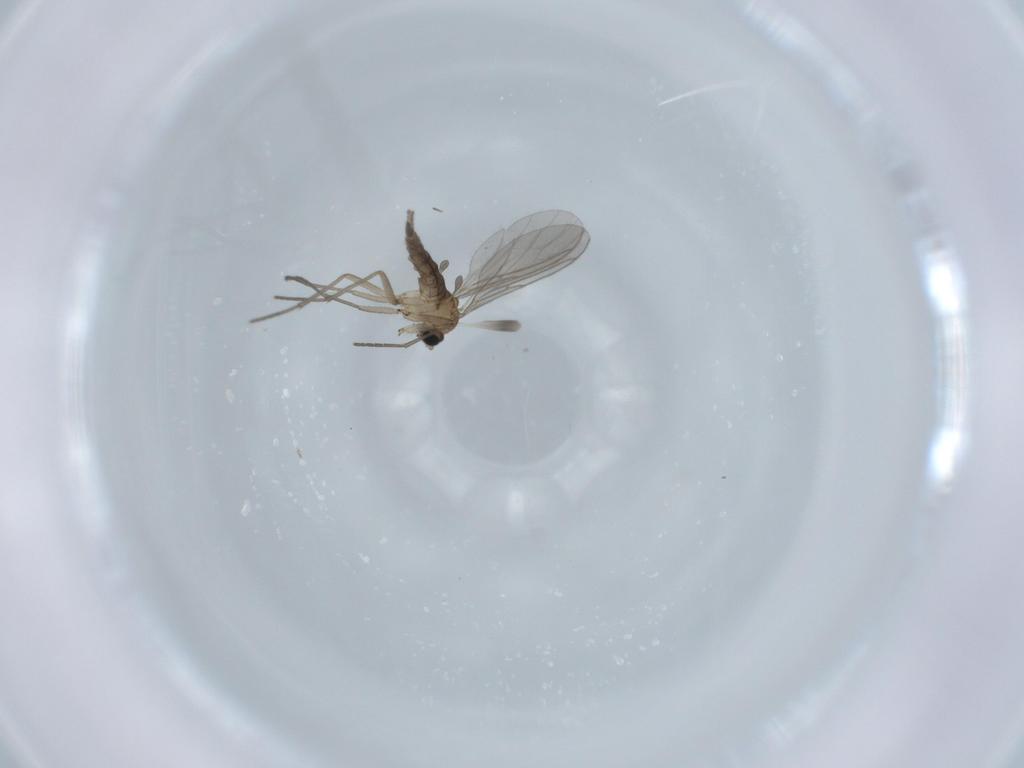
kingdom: Animalia
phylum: Arthropoda
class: Insecta
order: Diptera
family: Sciaridae
